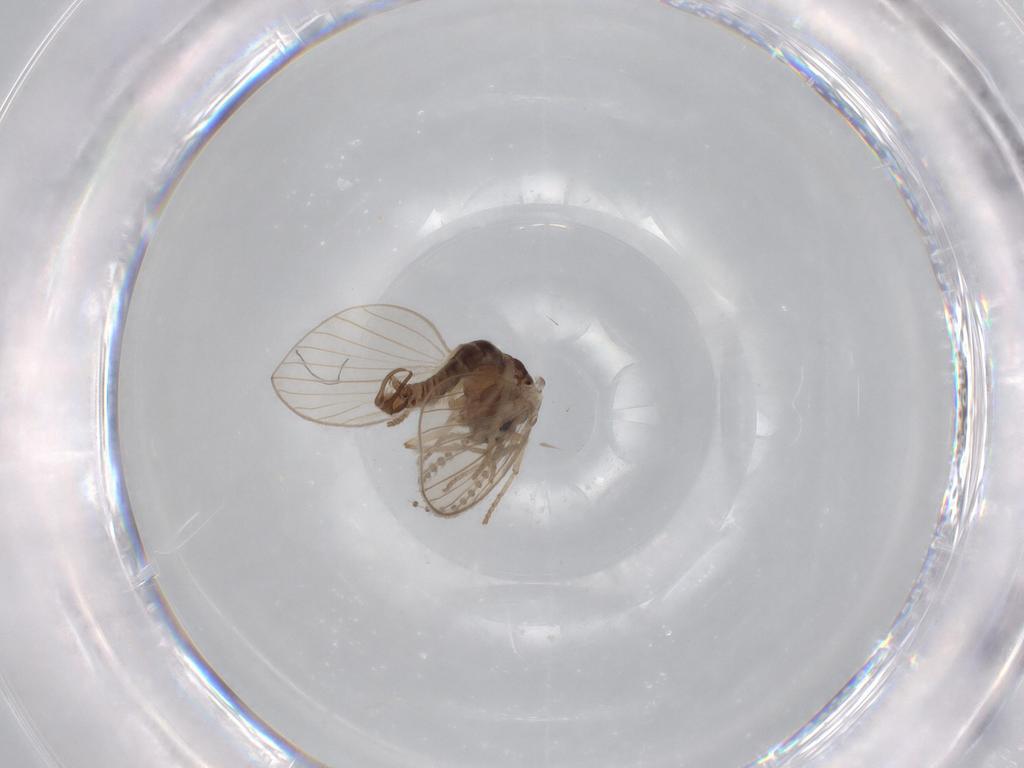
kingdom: Animalia
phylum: Arthropoda
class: Insecta
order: Diptera
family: Psychodidae
